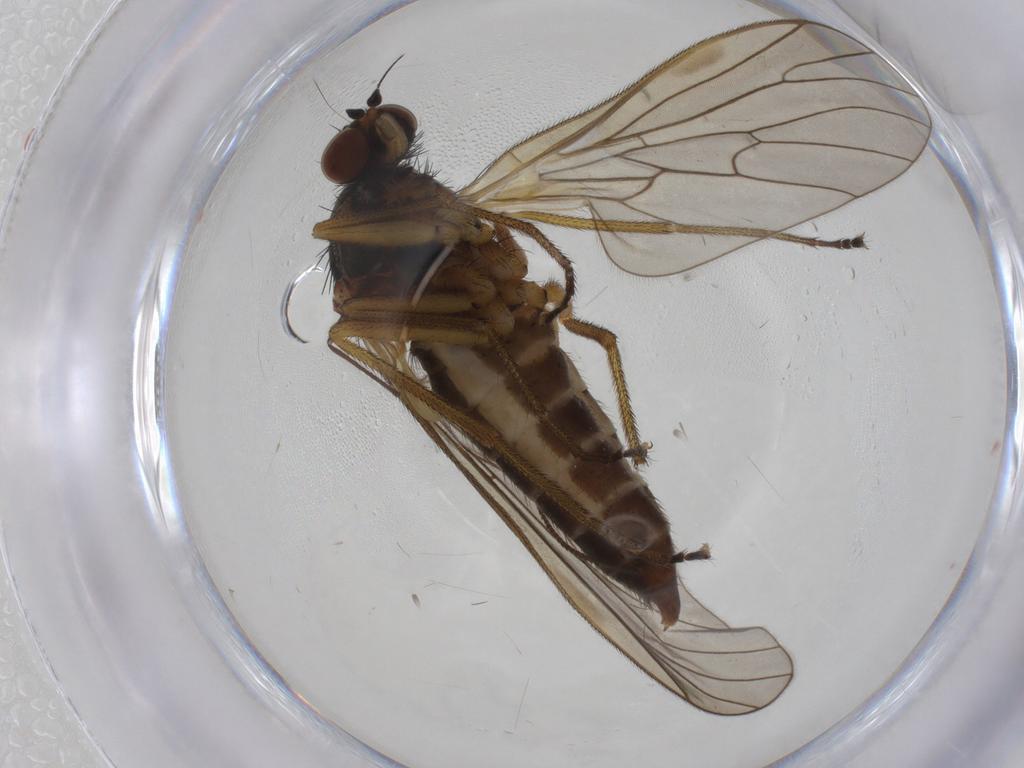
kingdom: Animalia
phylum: Arthropoda
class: Insecta
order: Diptera
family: Brachystomatidae
